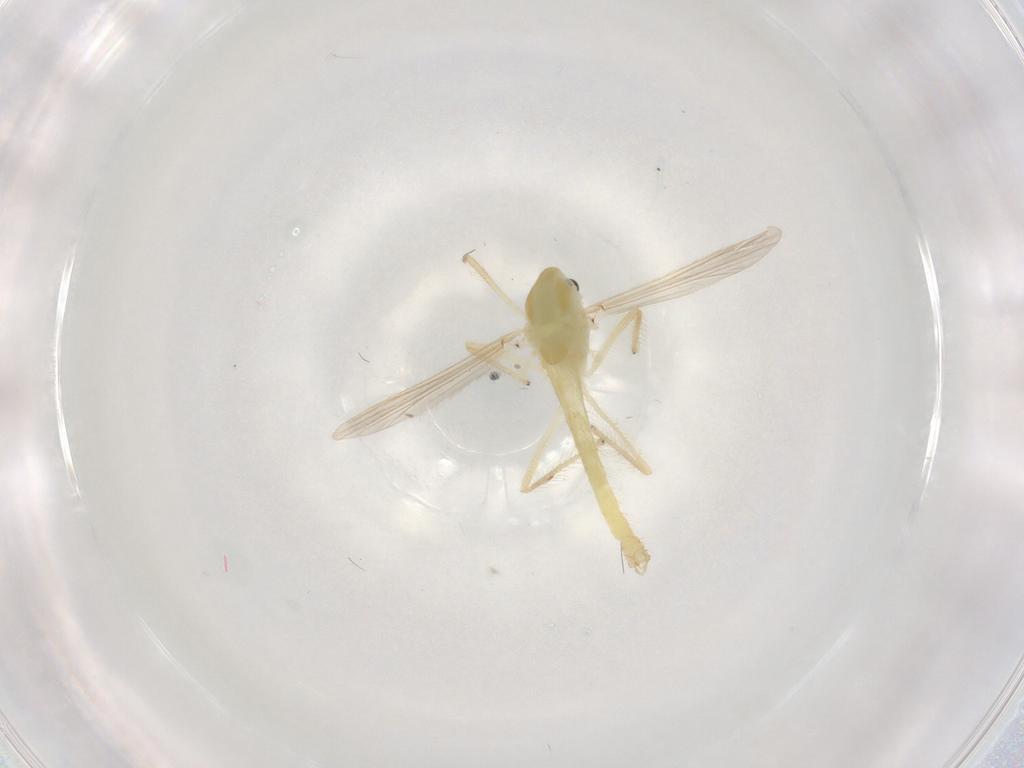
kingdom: Animalia
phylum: Arthropoda
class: Insecta
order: Diptera
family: Chironomidae
